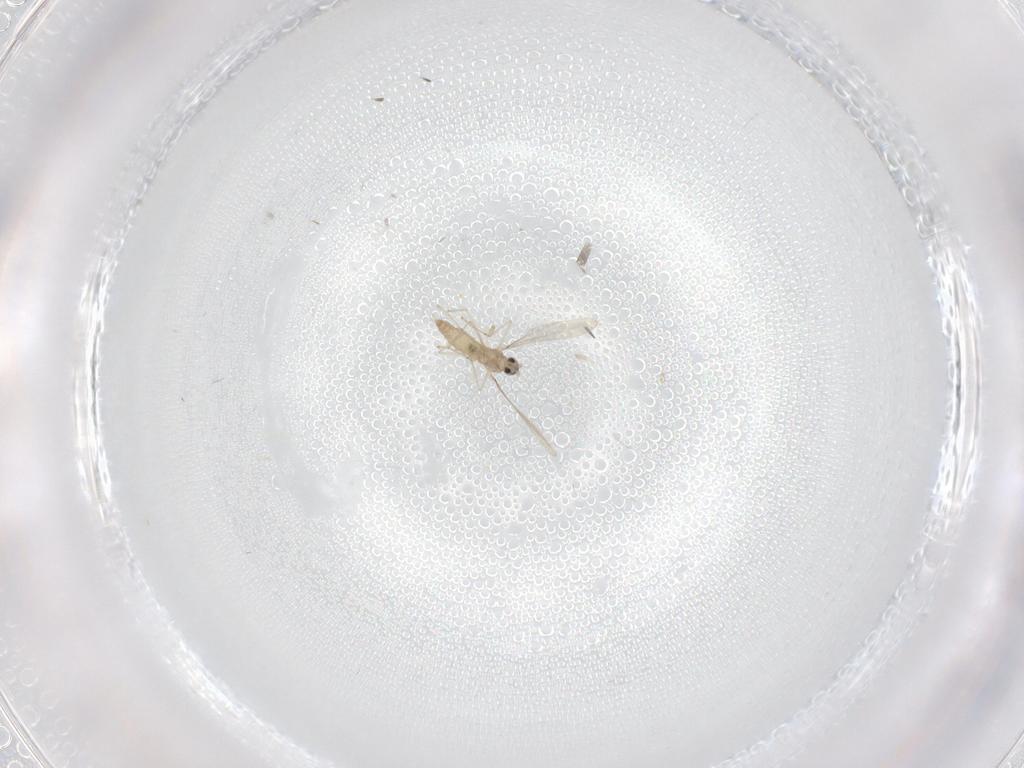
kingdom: Animalia
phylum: Arthropoda
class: Insecta
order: Diptera
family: Cecidomyiidae
